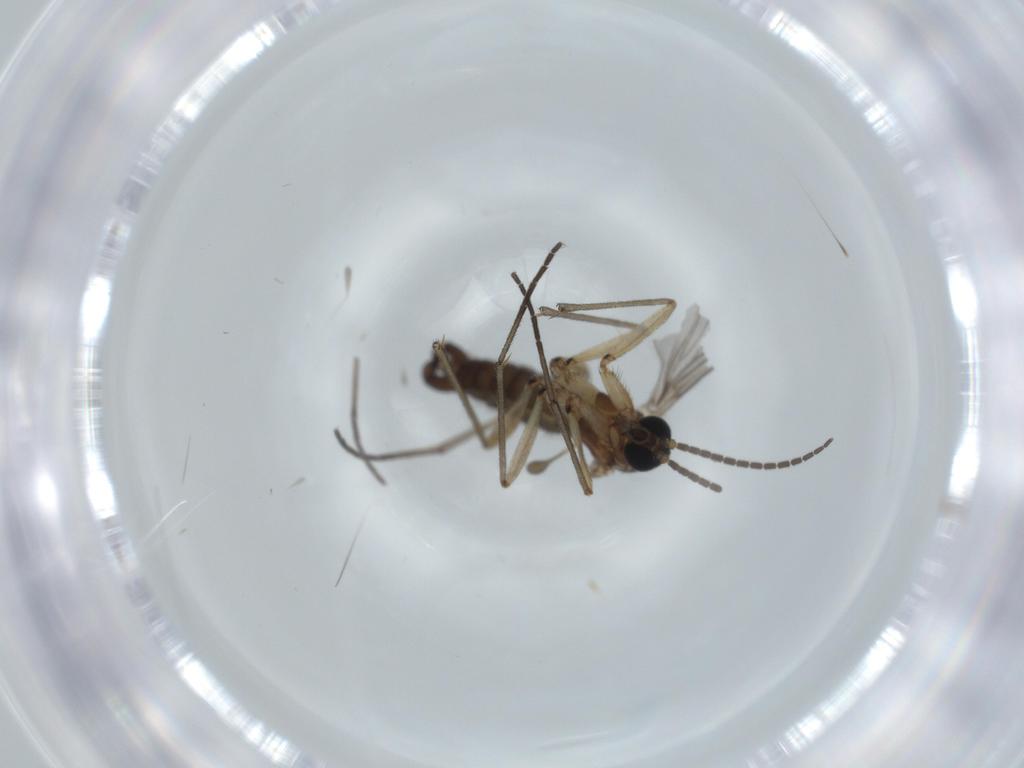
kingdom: Animalia
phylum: Arthropoda
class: Insecta
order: Diptera
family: Sciaridae
